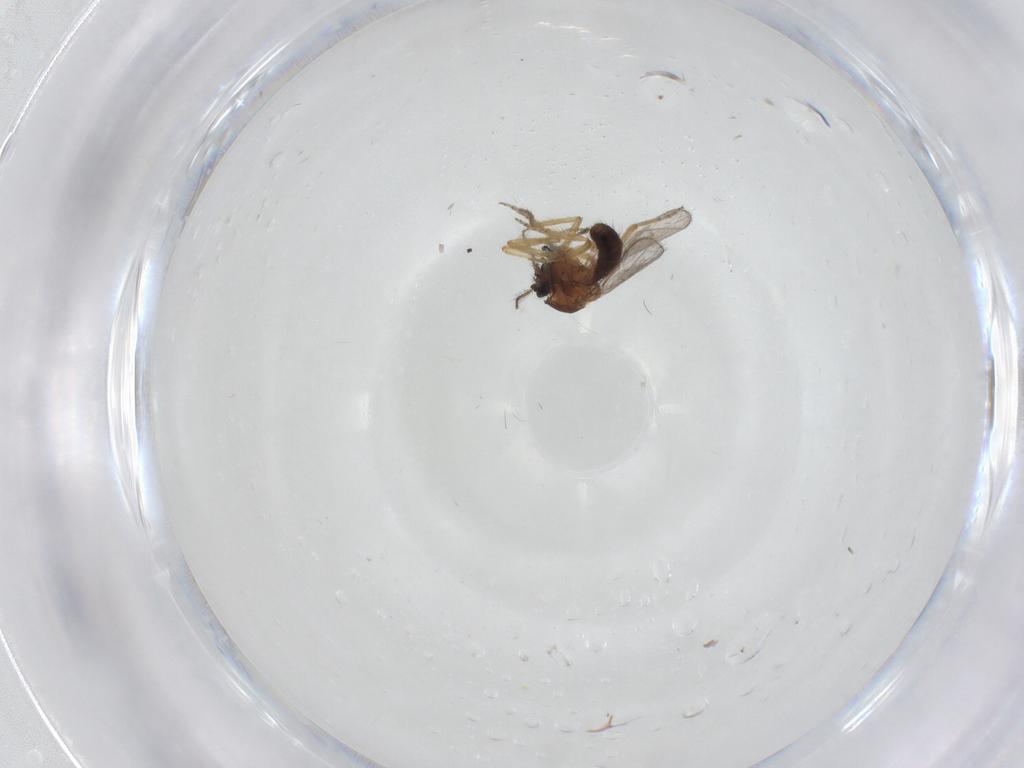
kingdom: Animalia
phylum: Arthropoda
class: Insecta
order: Diptera
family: Ceratopogonidae
